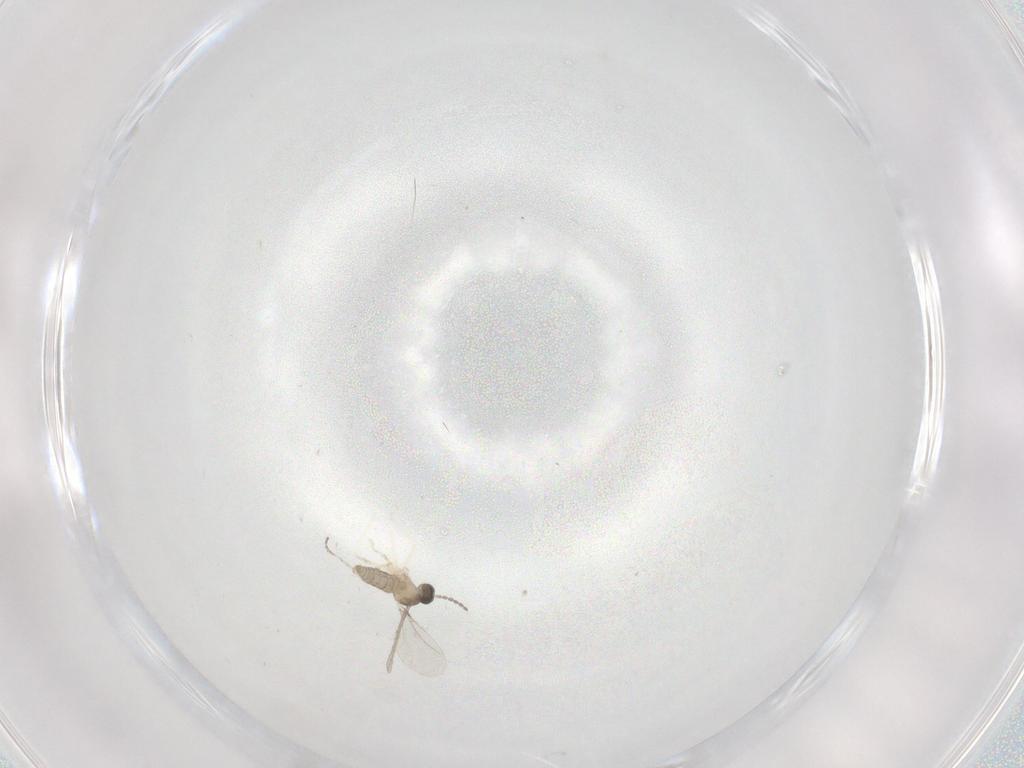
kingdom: Animalia
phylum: Arthropoda
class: Insecta
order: Diptera
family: Cecidomyiidae
